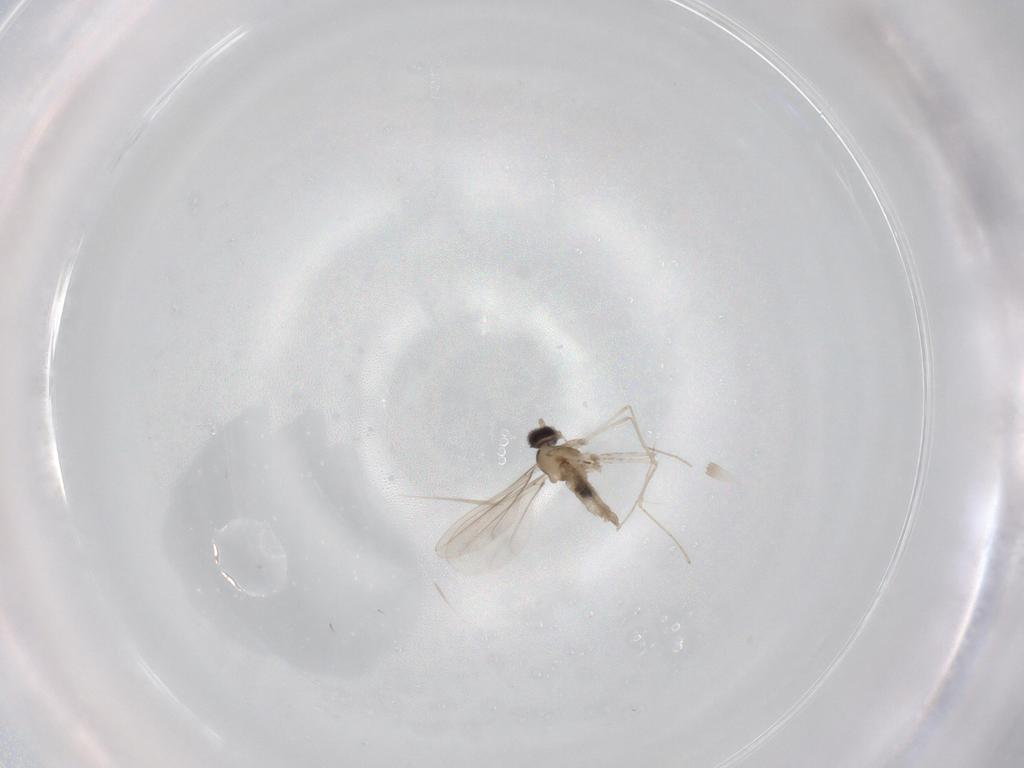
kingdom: Animalia
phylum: Arthropoda
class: Insecta
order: Diptera
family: Cecidomyiidae
